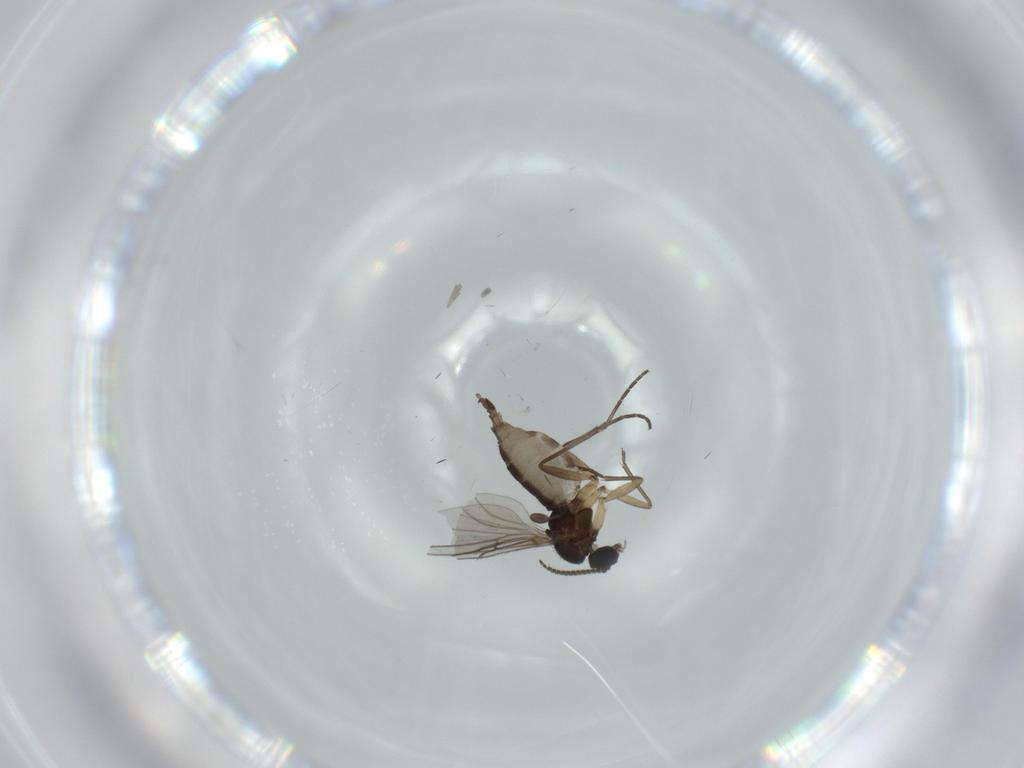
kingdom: Animalia
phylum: Arthropoda
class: Insecta
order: Diptera
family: Sciaridae
